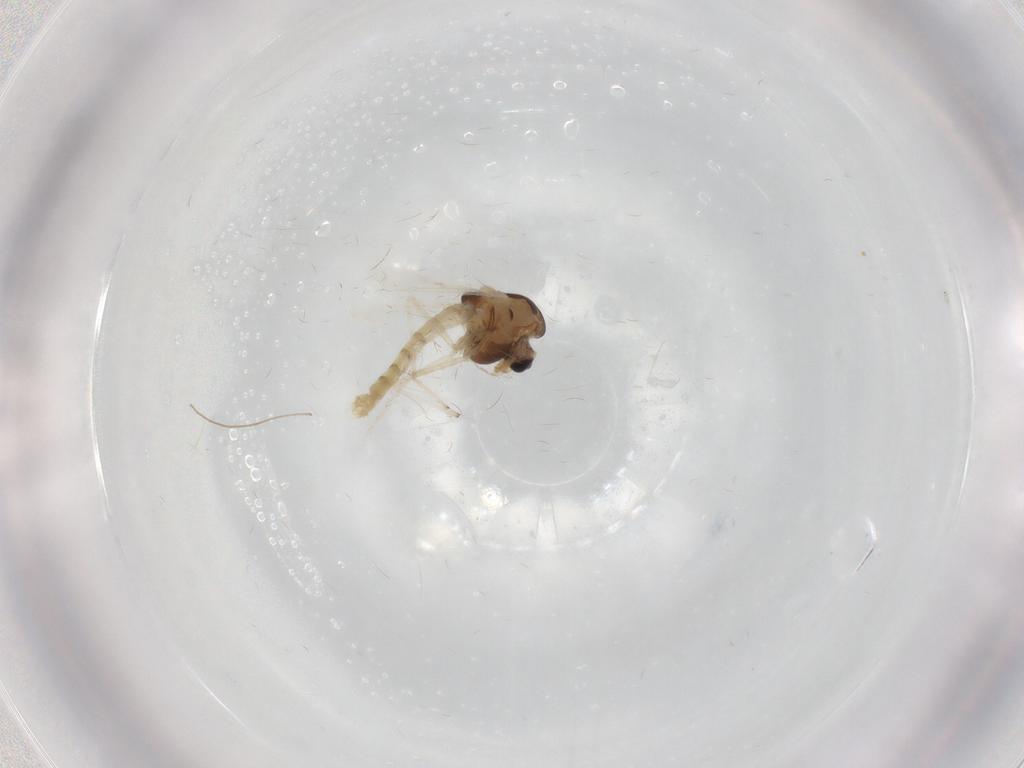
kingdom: Animalia
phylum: Arthropoda
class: Insecta
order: Diptera
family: Chironomidae
